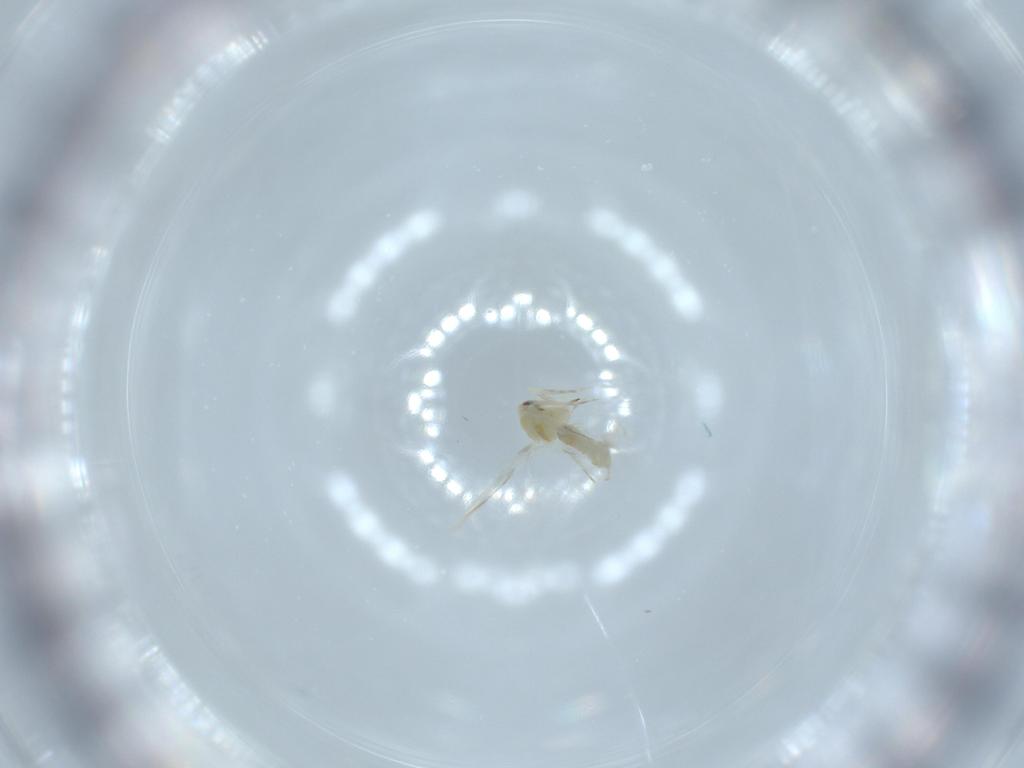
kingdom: Animalia
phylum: Arthropoda
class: Insecta
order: Hemiptera
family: Aleyrodidae
